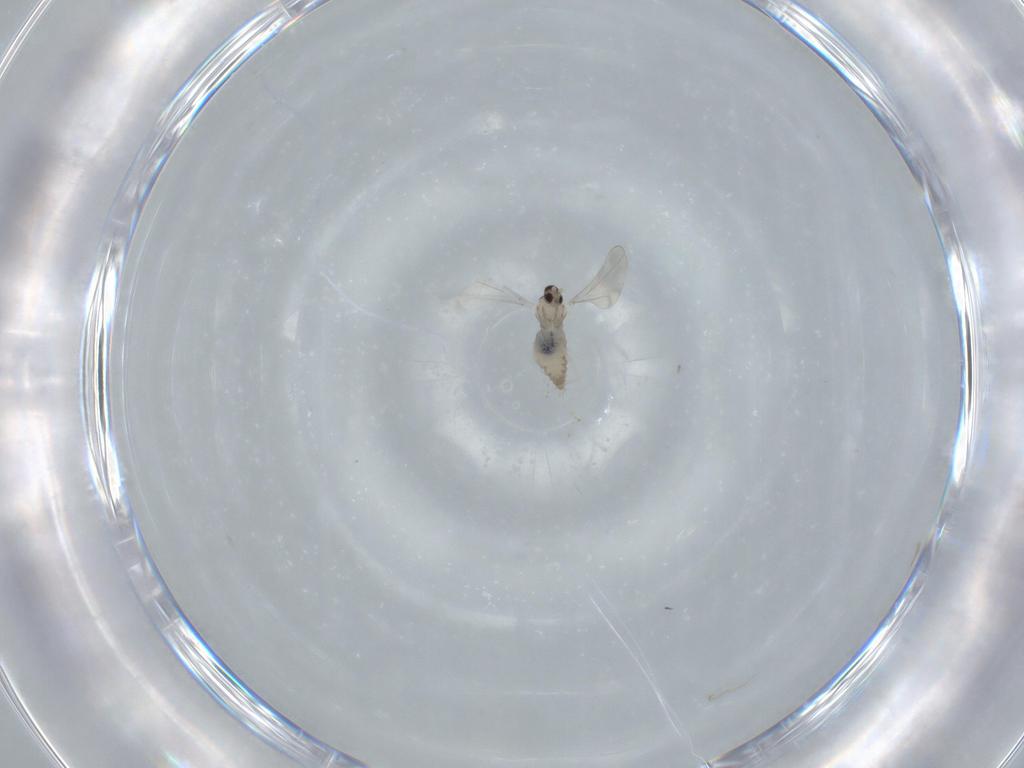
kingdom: Animalia
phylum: Arthropoda
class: Insecta
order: Diptera
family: Cecidomyiidae
